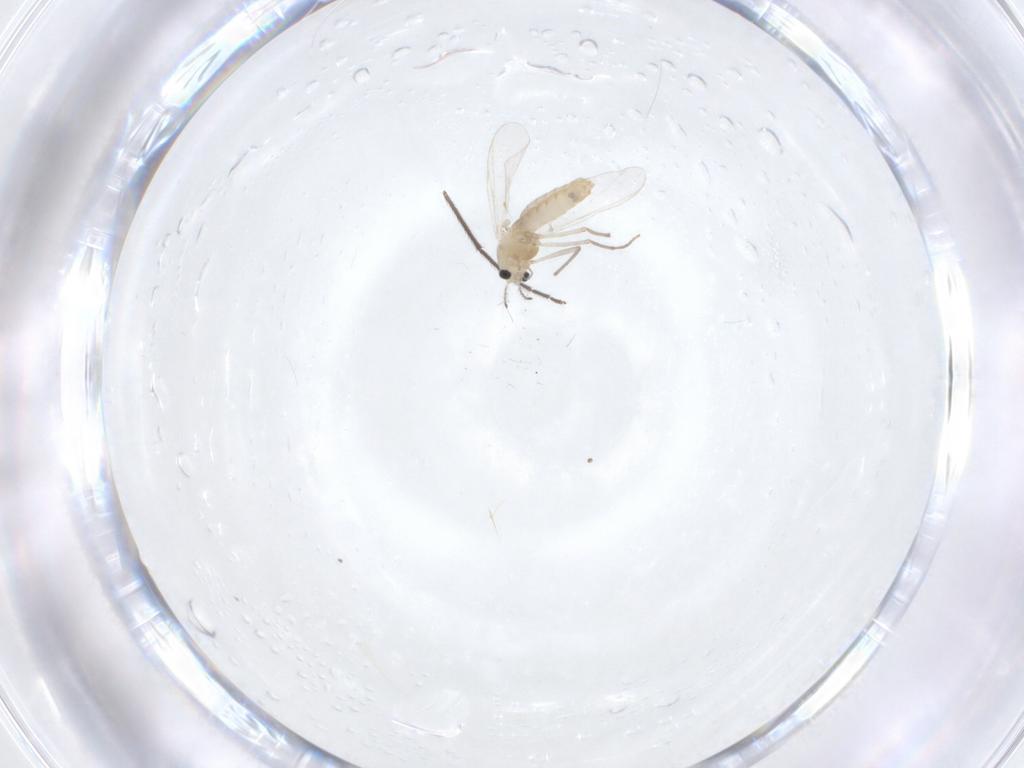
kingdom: Animalia
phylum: Arthropoda
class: Insecta
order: Diptera
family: Chironomidae
